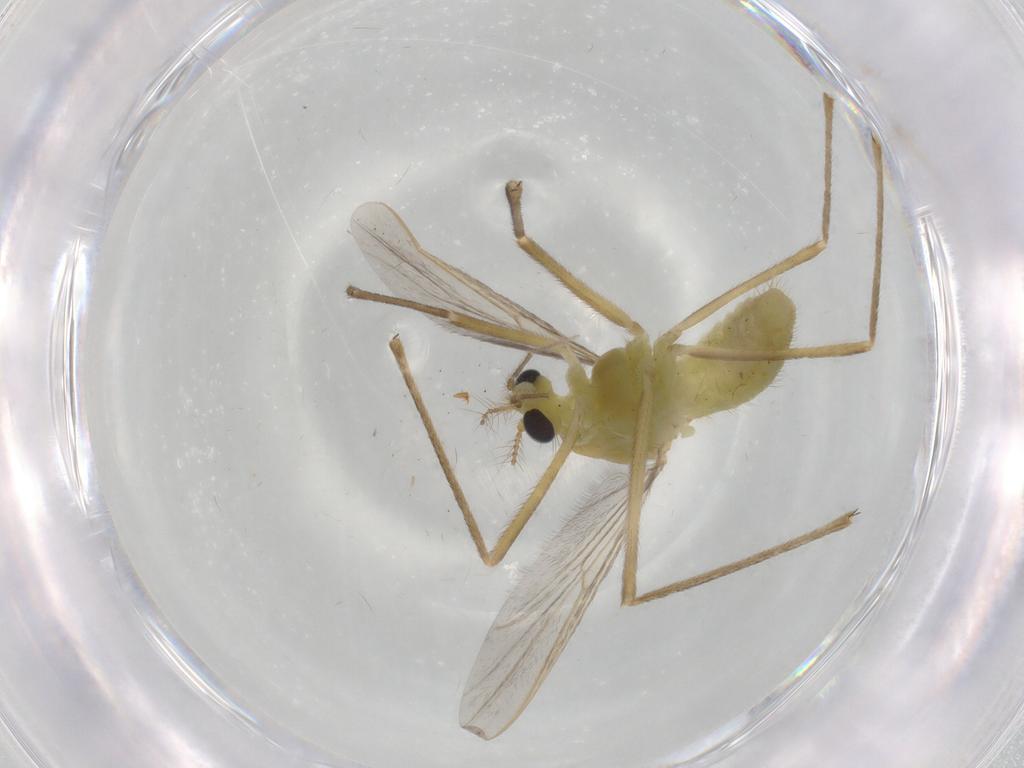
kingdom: Animalia
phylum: Arthropoda
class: Insecta
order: Diptera
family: Chironomidae
